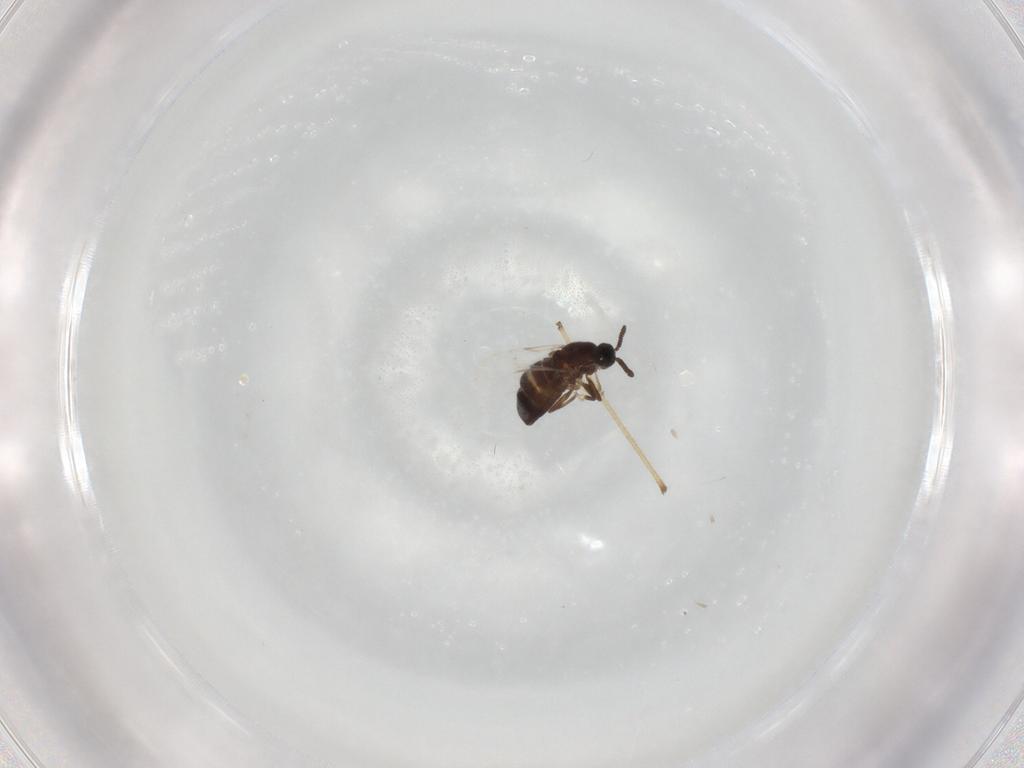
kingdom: Animalia
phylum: Arthropoda
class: Insecta
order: Diptera
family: Scatopsidae
